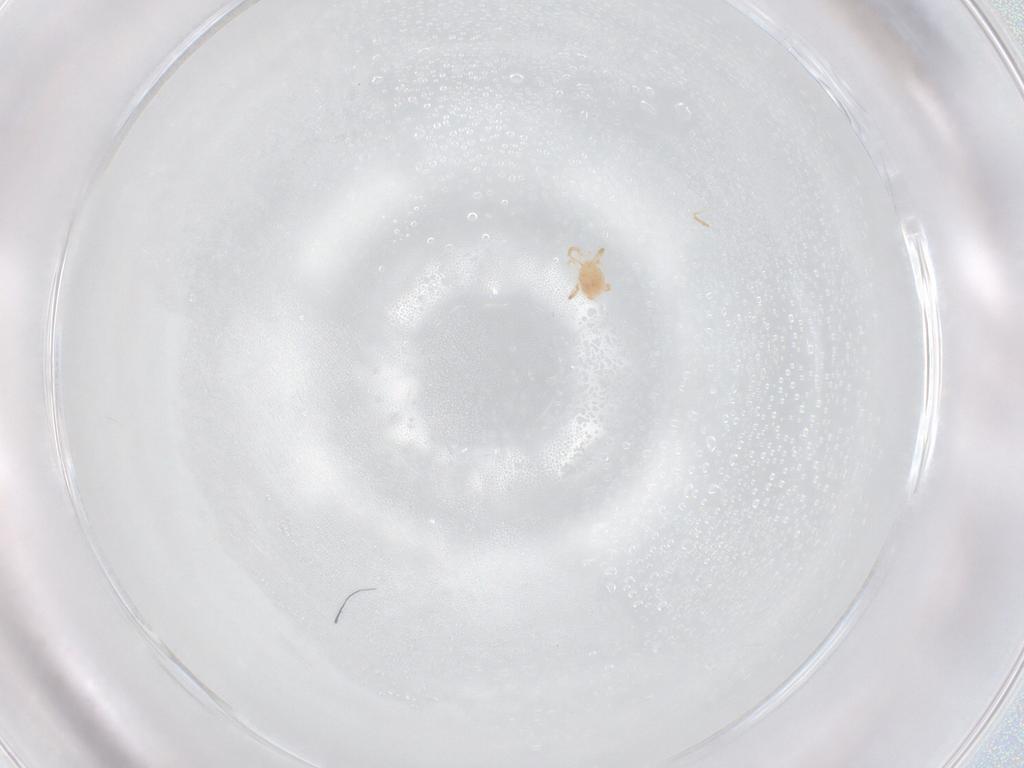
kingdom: Animalia
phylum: Arthropoda
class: Arachnida
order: Mesostigmata
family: Phytoseiidae
